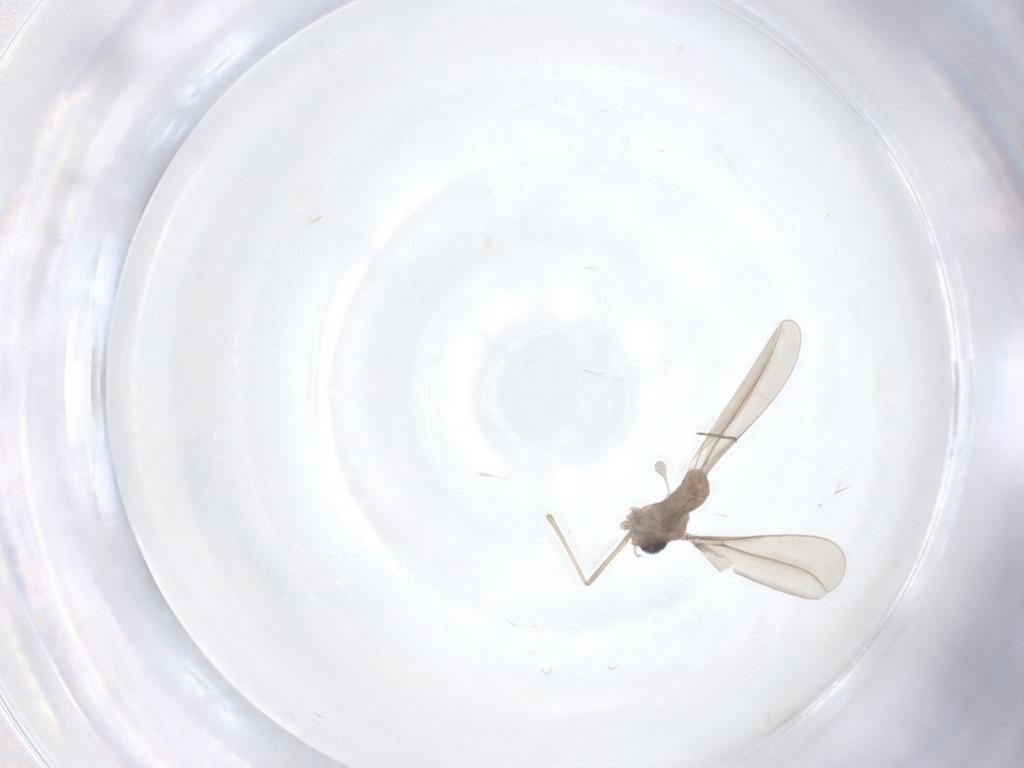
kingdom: Animalia
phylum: Arthropoda
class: Insecta
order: Diptera
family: Cecidomyiidae
